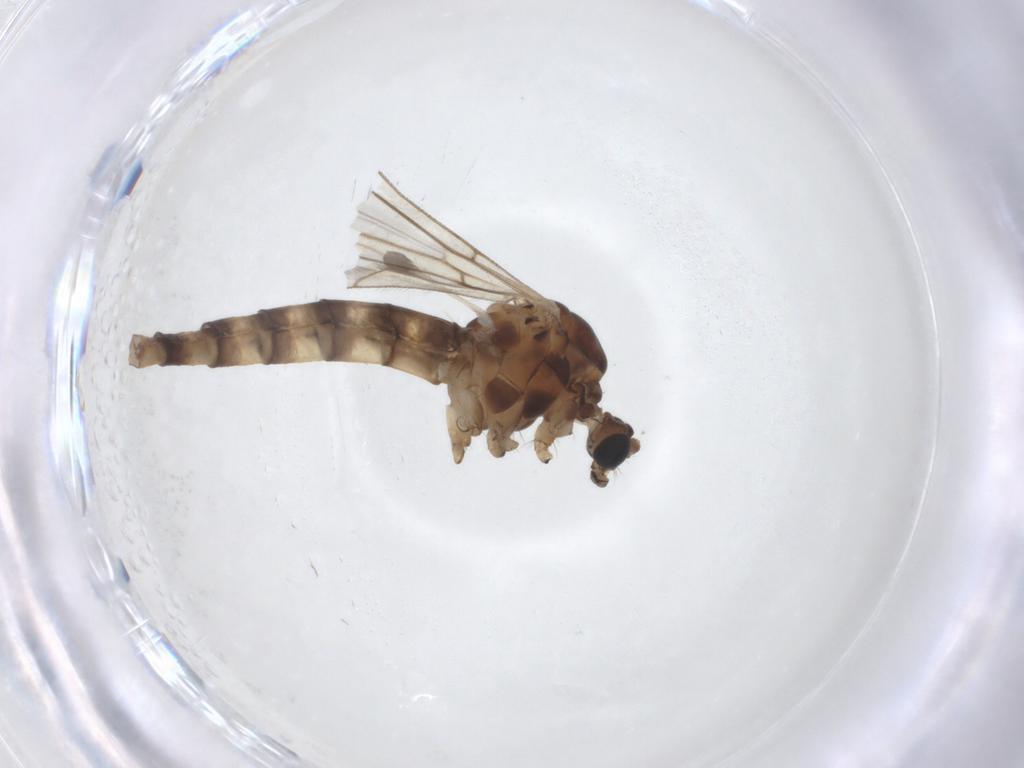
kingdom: Animalia
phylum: Arthropoda
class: Insecta
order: Diptera
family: Trichoceridae
